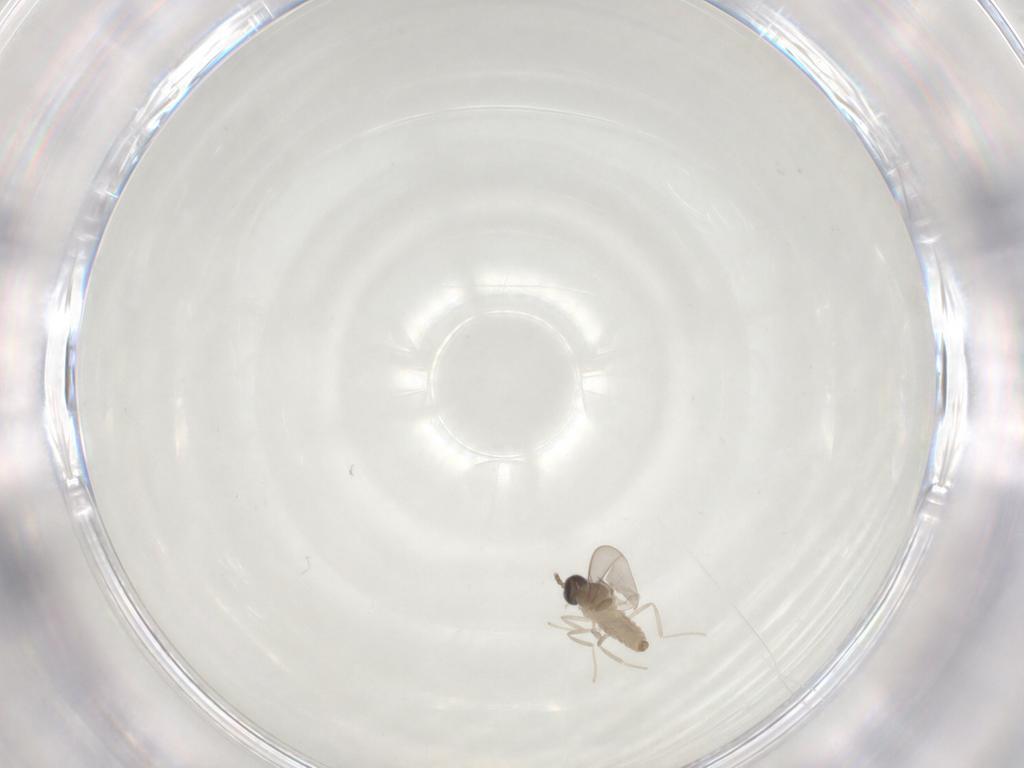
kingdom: Animalia
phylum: Arthropoda
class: Insecta
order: Diptera
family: Cecidomyiidae
